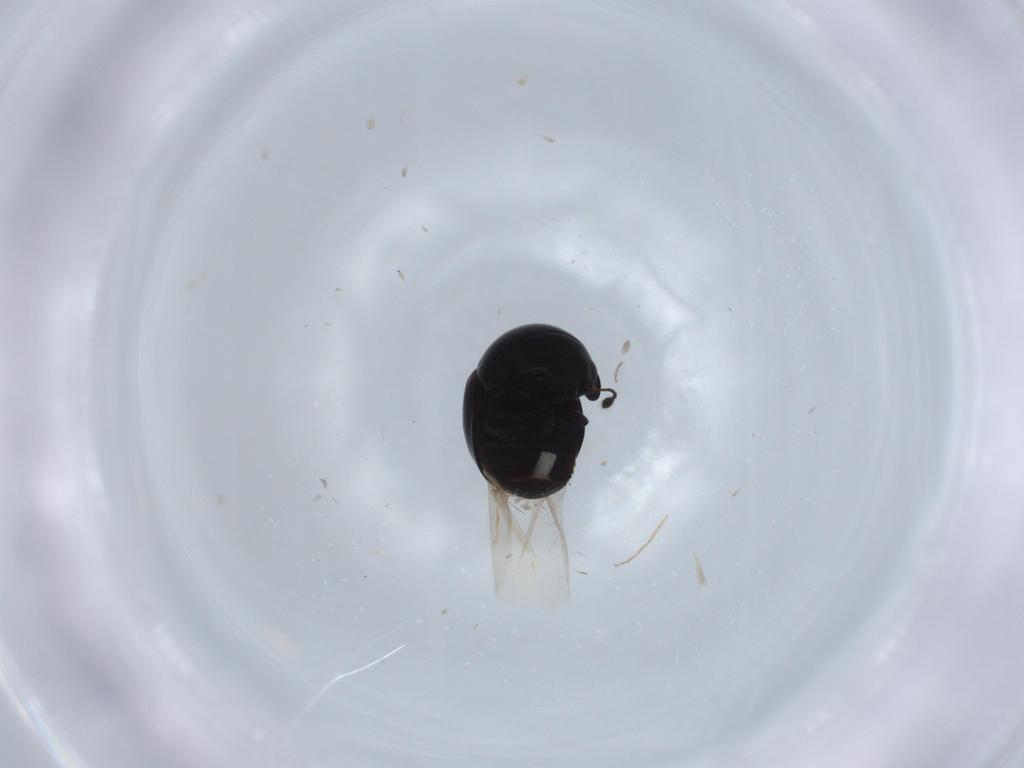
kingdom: Animalia
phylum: Arthropoda
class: Insecta
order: Coleoptera
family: Cybocephalidae
